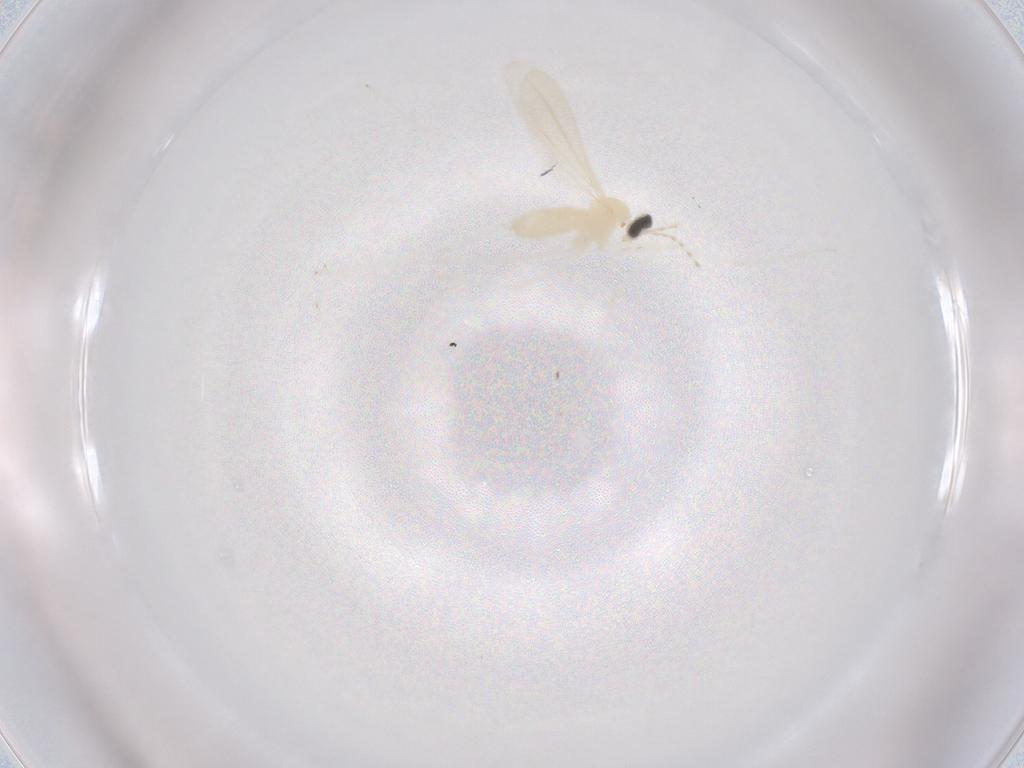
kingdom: Animalia
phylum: Arthropoda
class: Insecta
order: Diptera
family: Cecidomyiidae
